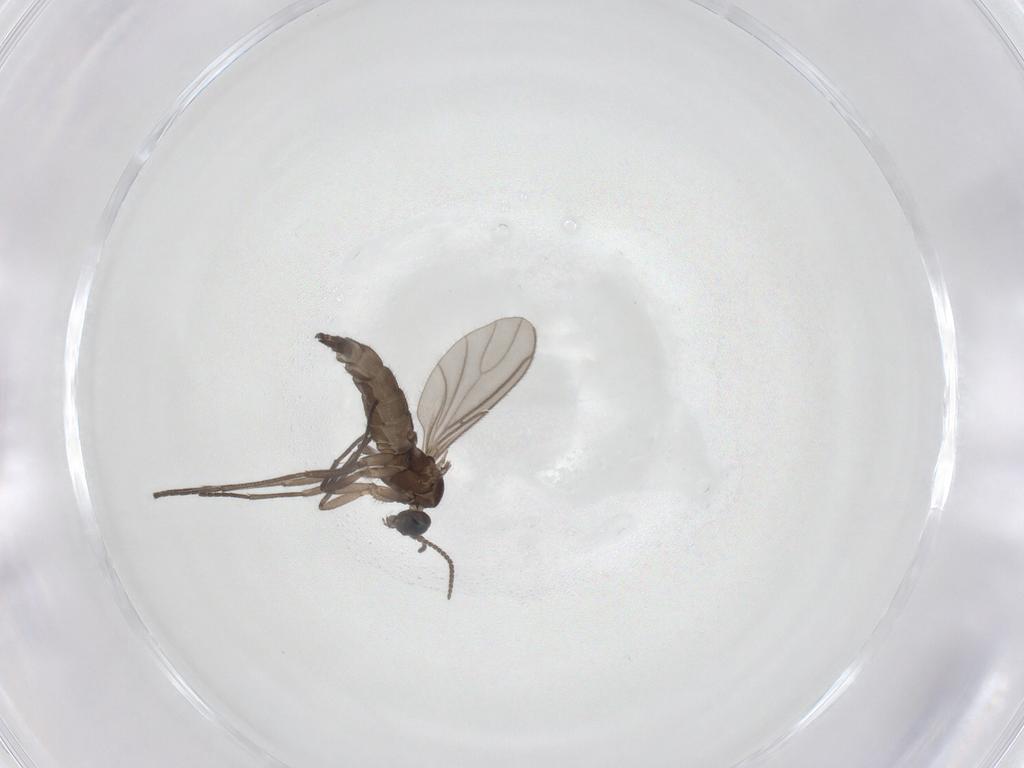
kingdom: Animalia
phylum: Arthropoda
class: Insecta
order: Diptera
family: Sciaridae
